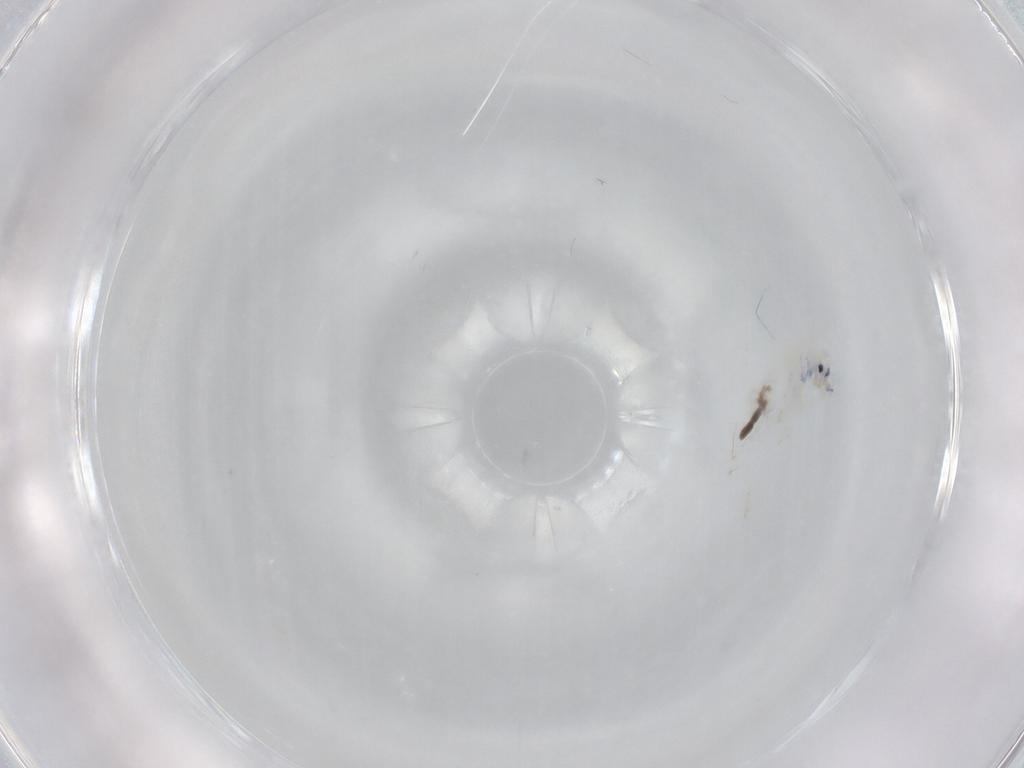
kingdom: Animalia
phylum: Arthropoda
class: Collembola
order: Entomobryomorpha
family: Entomobryidae
